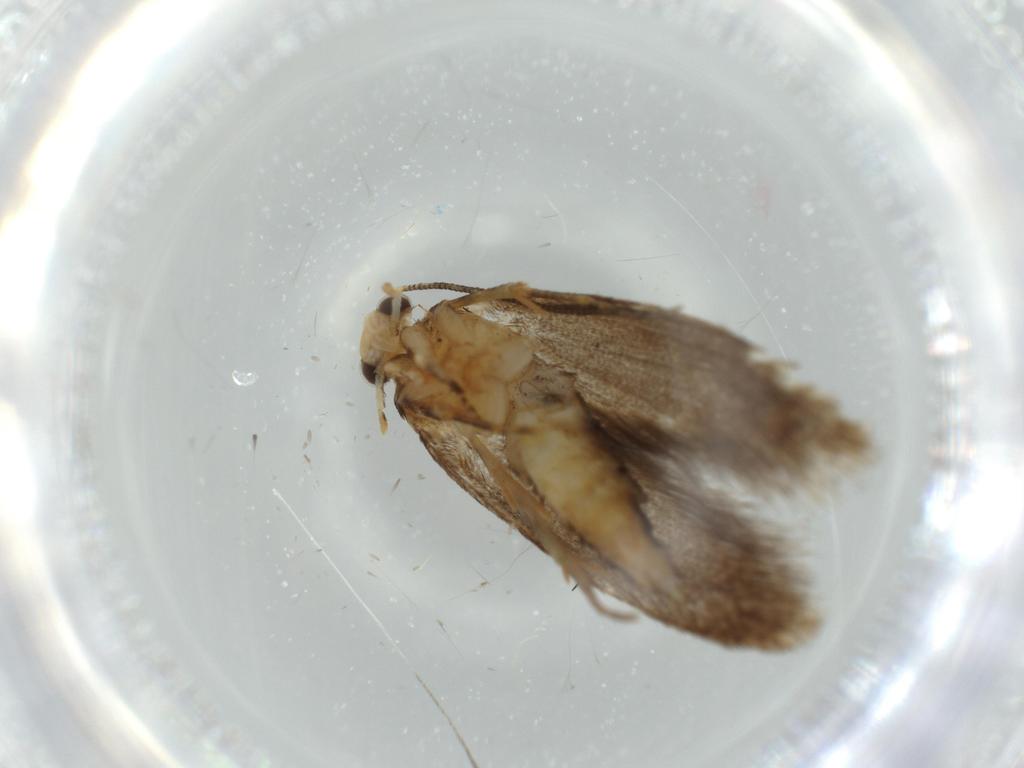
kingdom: Animalia
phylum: Arthropoda
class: Insecta
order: Lepidoptera
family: Tineidae
